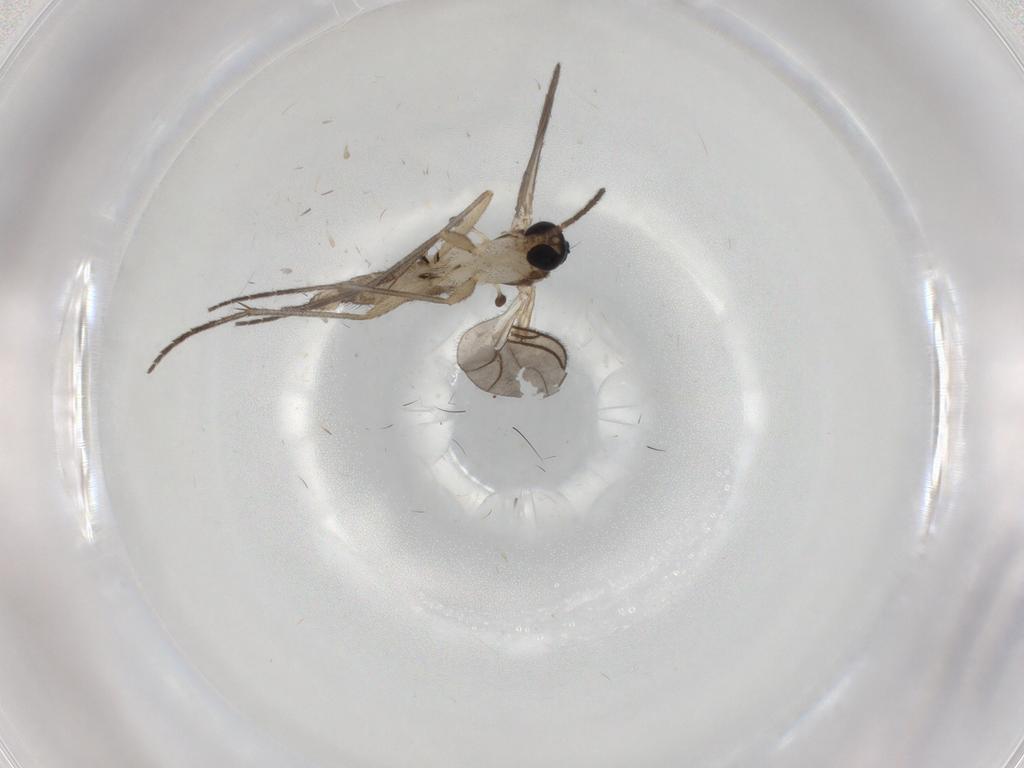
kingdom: Animalia
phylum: Arthropoda
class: Insecta
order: Diptera
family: Sciaridae
